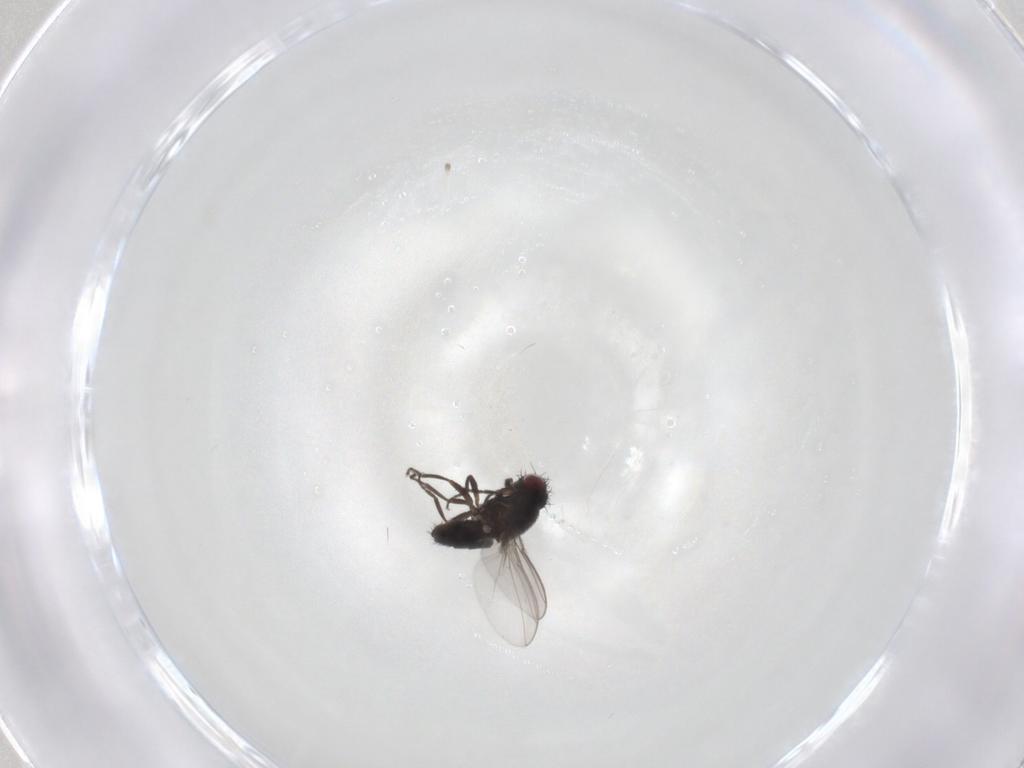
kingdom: Animalia
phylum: Arthropoda
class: Insecta
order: Diptera
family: Carnidae
